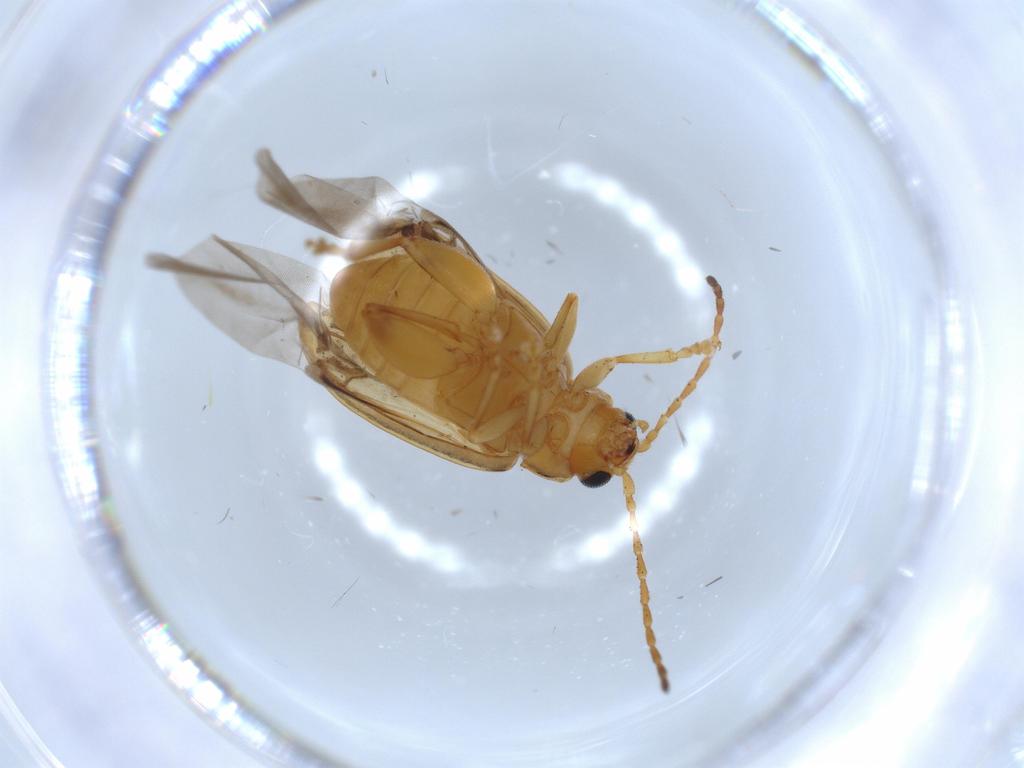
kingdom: Animalia
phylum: Arthropoda
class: Insecta
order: Coleoptera
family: Chrysomelidae
